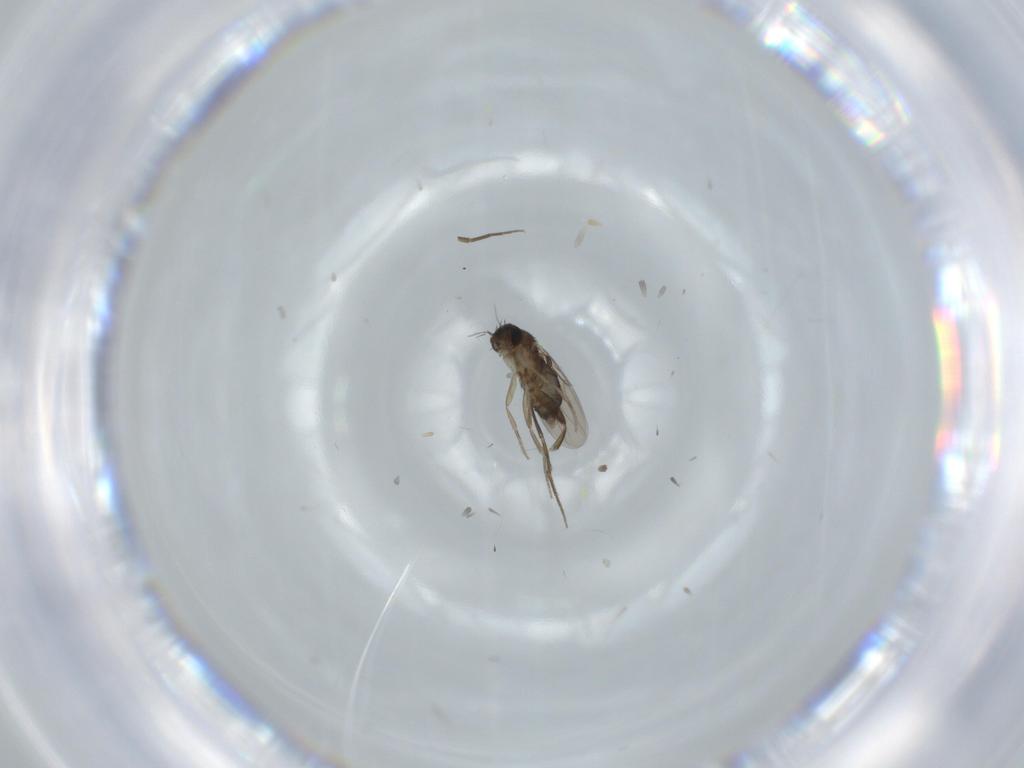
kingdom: Animalia
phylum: Arthropoda
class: Insecta
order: Diptera
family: Phoridae
